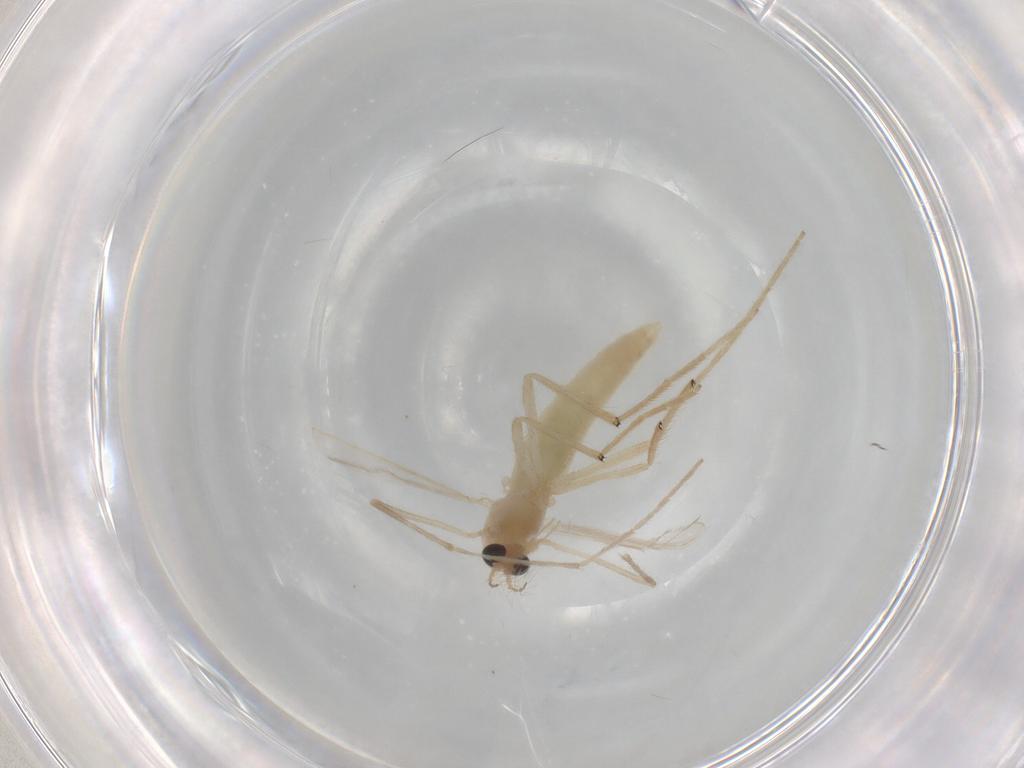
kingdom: Animalia
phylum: Arthropoda
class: Insecta
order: Diptera
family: Chironomidae
